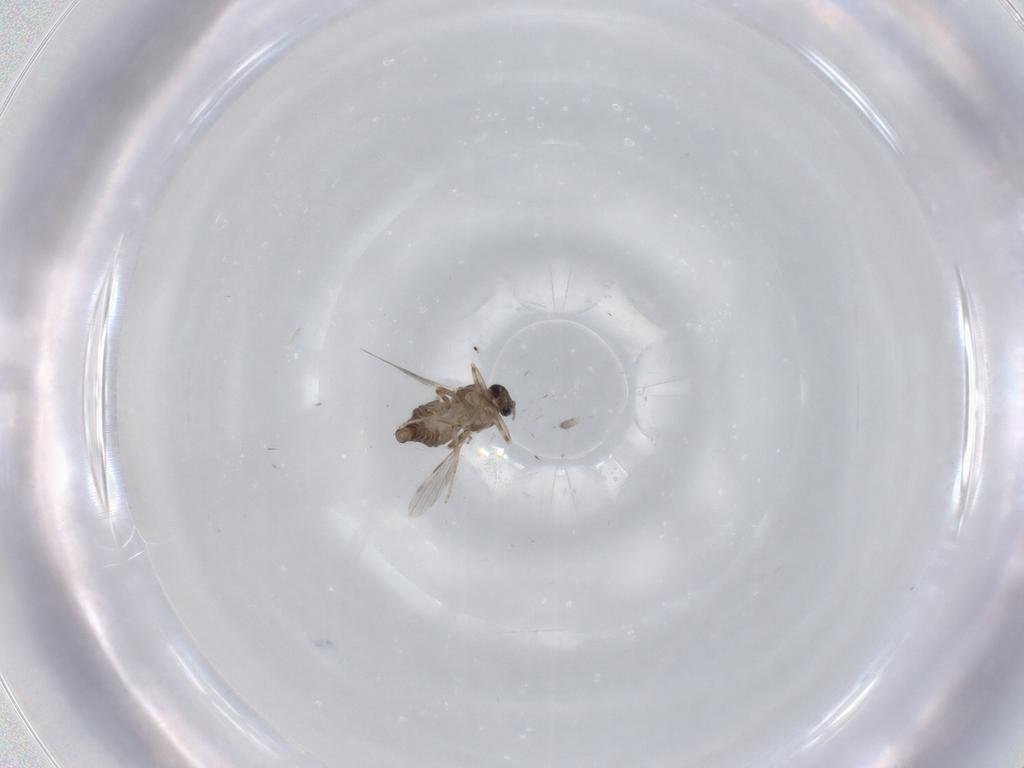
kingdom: Animalia
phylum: Arthropoda
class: Insecta
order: Diptera
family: Ceratopogonidae
